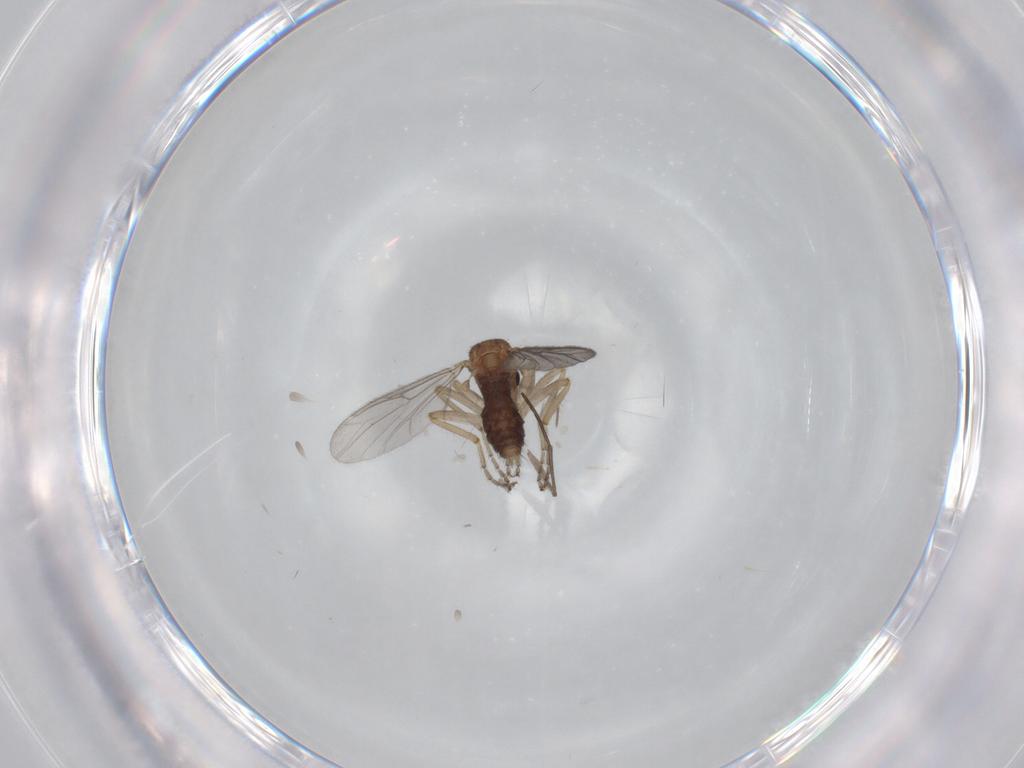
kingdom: Animalia
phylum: Arthropoda
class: Insecta
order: Diptera
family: Ceratopogonidae
